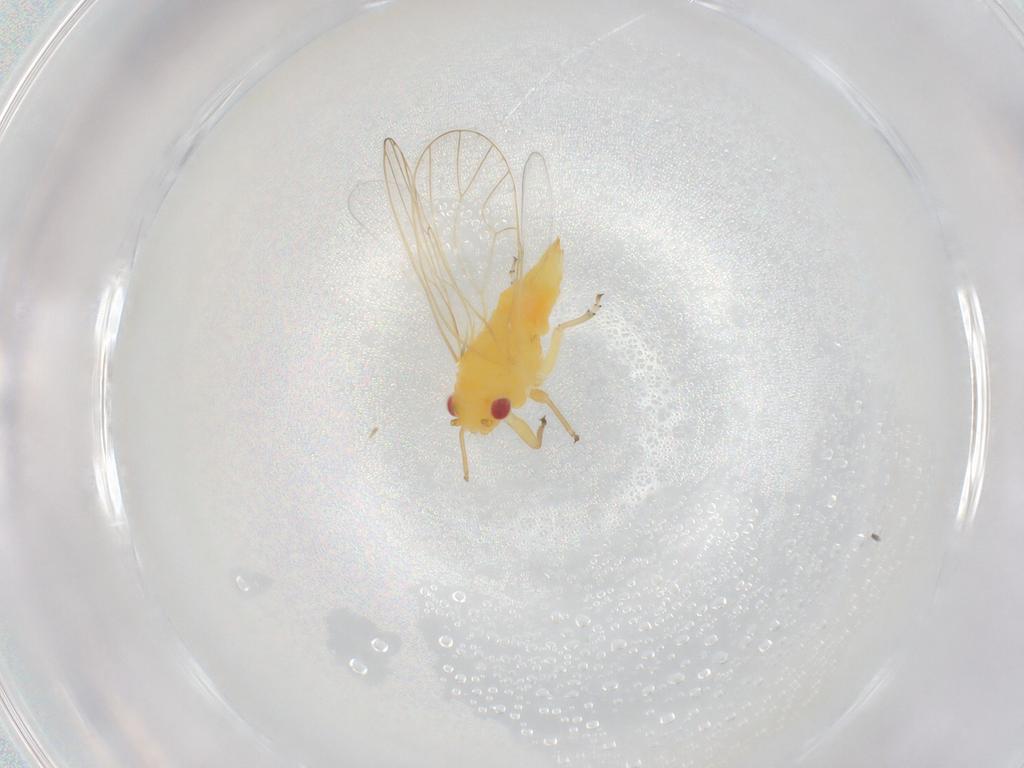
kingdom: Animalia
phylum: Arthropoda
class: Insecta
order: Hemiptera
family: Psyllidae
